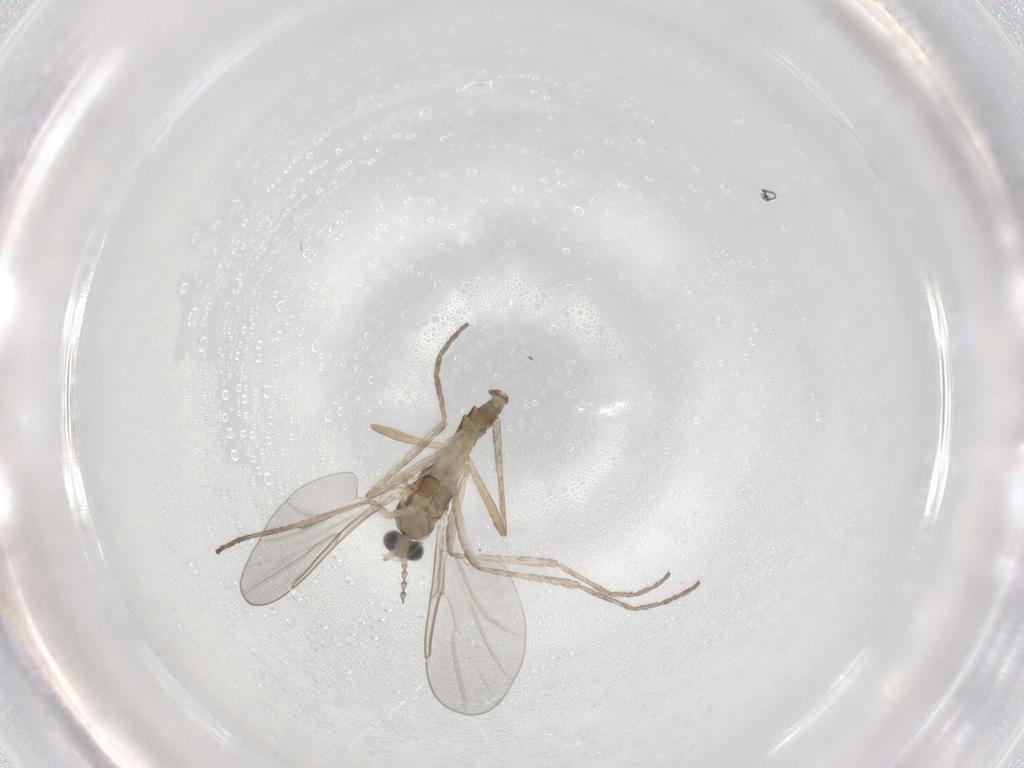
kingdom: Animalia
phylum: Arthropoda
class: Insecta
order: Diptera
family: Cecidomyiidae
